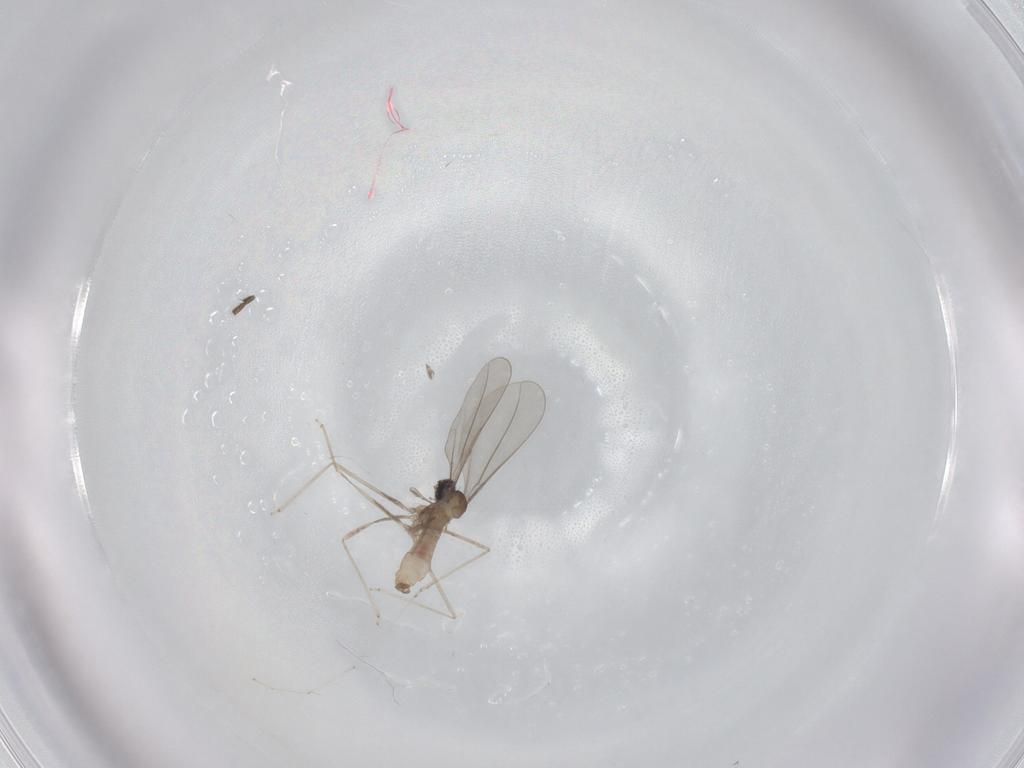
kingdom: Animalia
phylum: Arthropoda
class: Insecta
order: Diptera
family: Cecidomyiidae
